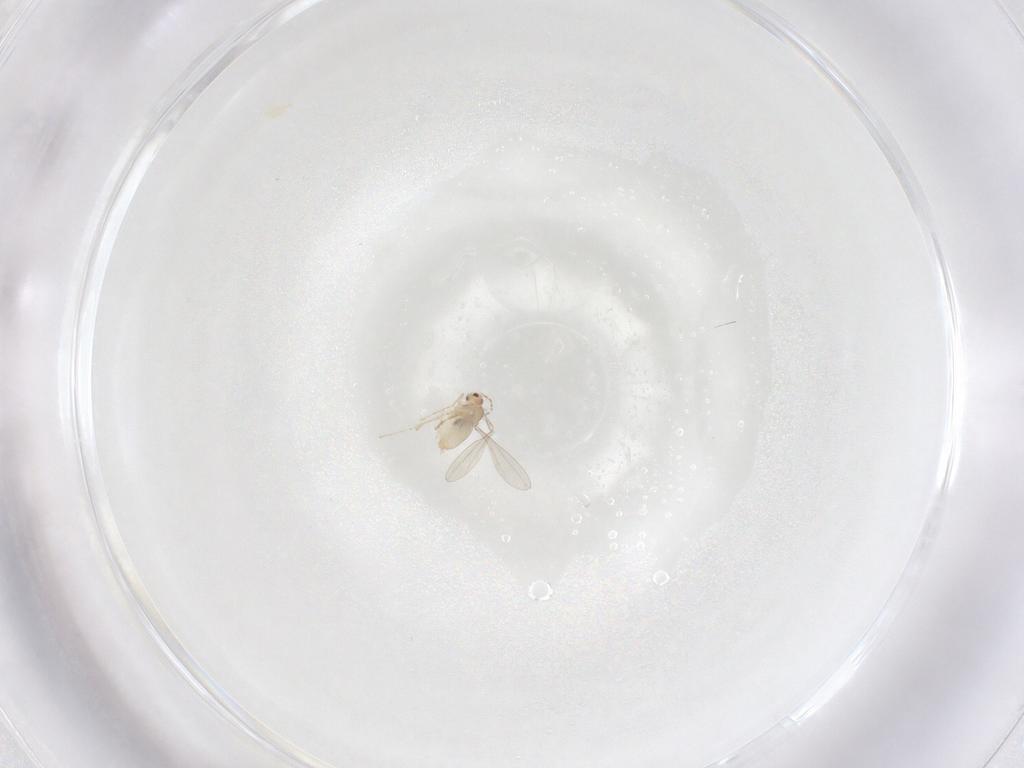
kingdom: Animalia
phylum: Arthropoda
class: Insecta
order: Diptera
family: Cecidomyiidae
